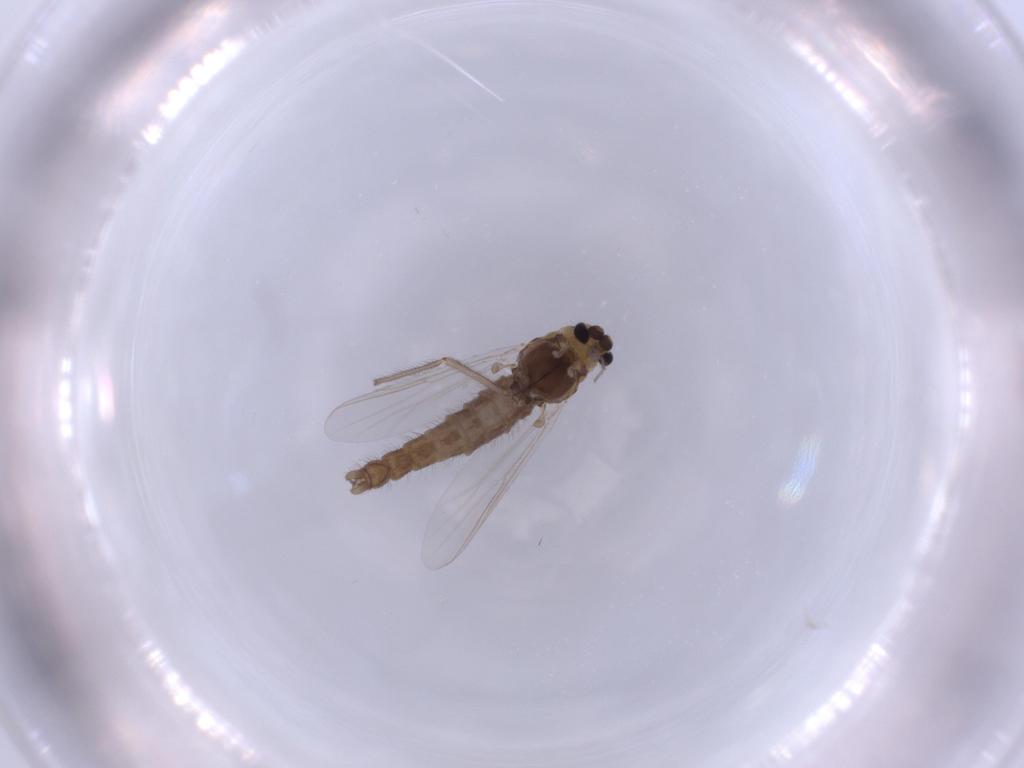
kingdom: Animalia
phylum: Arthropoda
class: Insecta
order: Diptera
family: Ceratopogonidae
